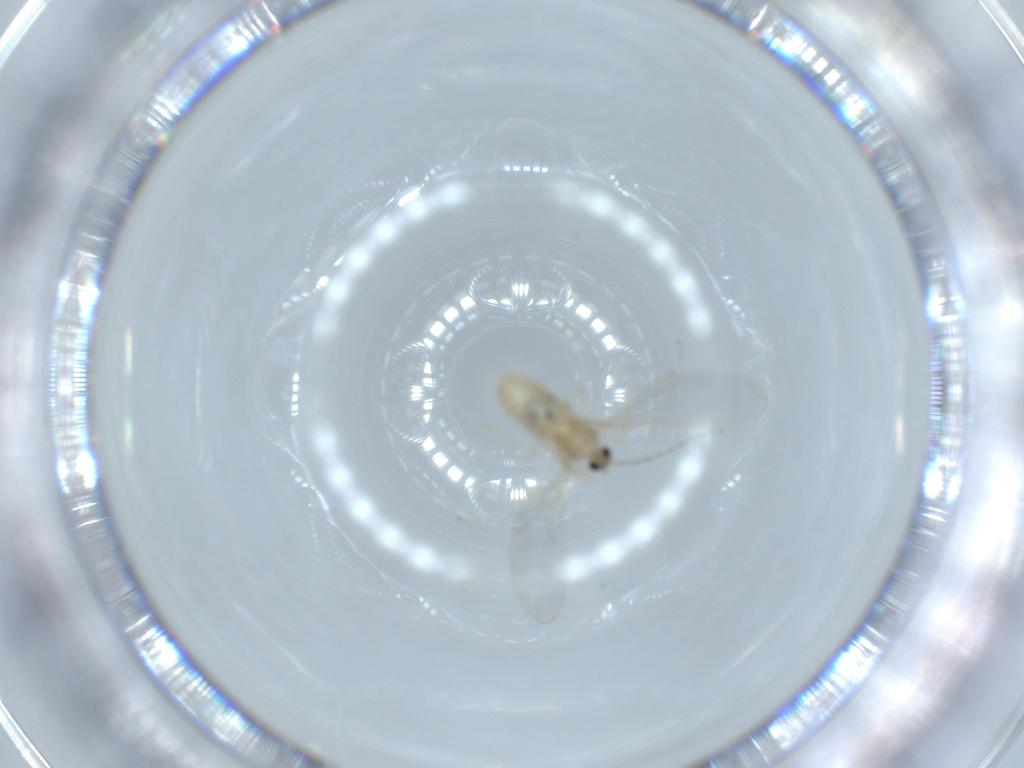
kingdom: Animalia
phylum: Arthropoda
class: Insecta
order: Diptera
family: Cecidomyiidae
